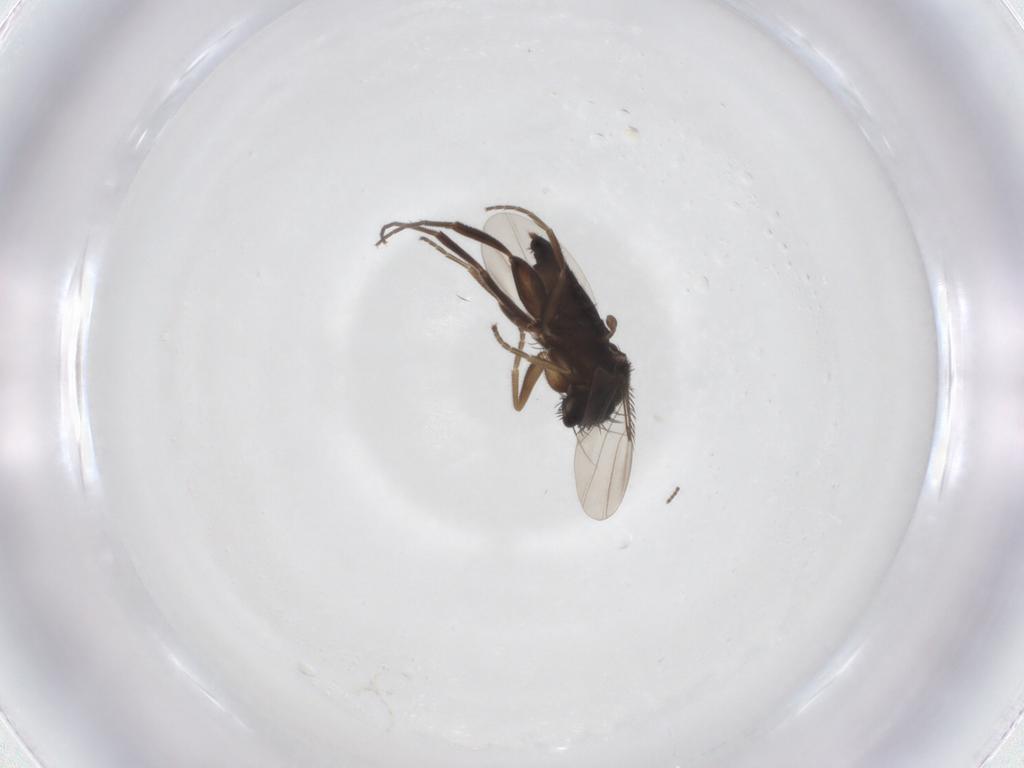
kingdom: Animalia
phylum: Arthropoda
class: Insecta
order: Diptera
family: Phoridae
